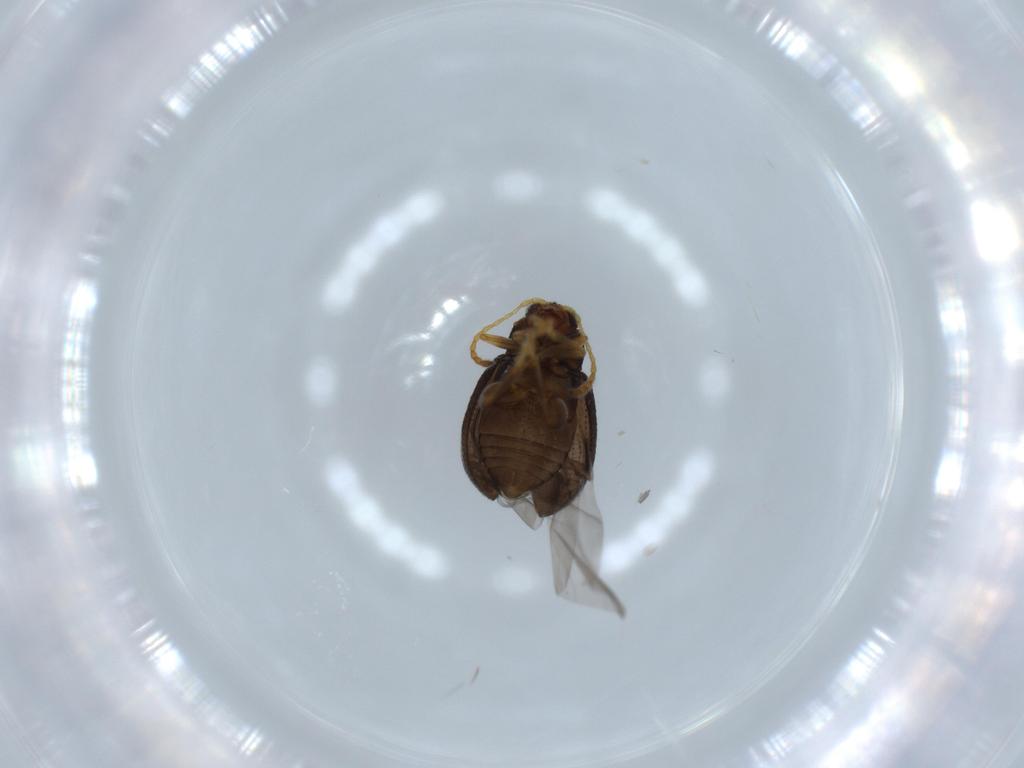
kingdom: Animalia
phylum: Arthropoda
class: Insecta
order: Coleoptera
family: Chrysomelidae
